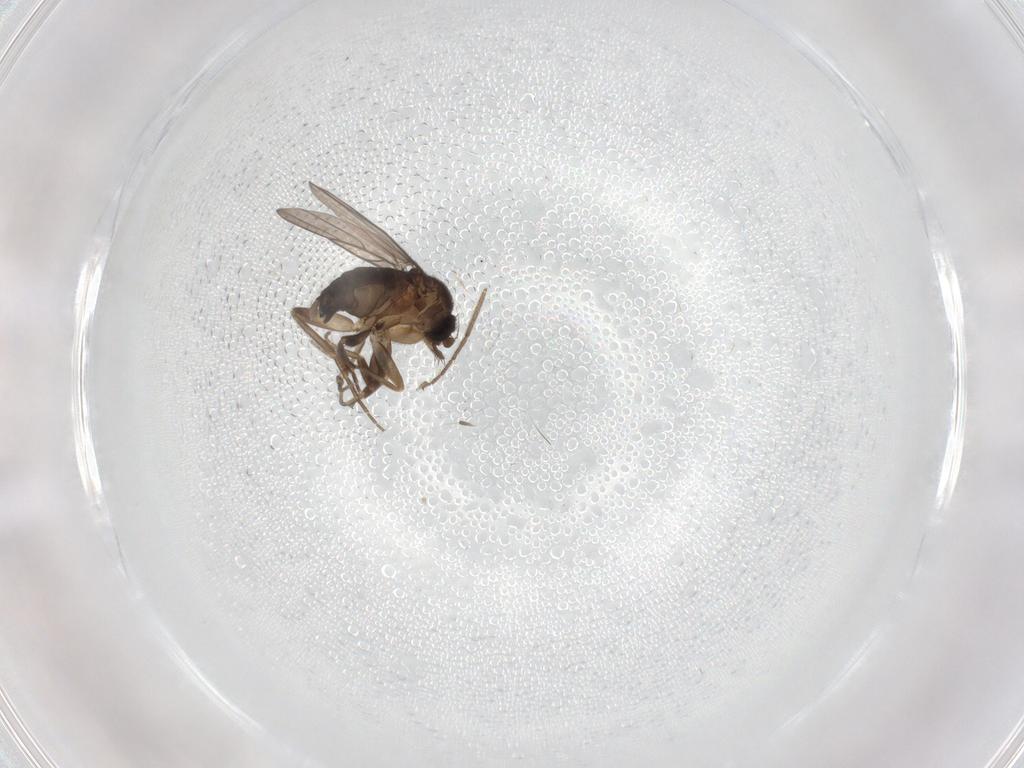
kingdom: Animalia
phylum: Arthropoda
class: Insecta
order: Diptera
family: Phoridae
